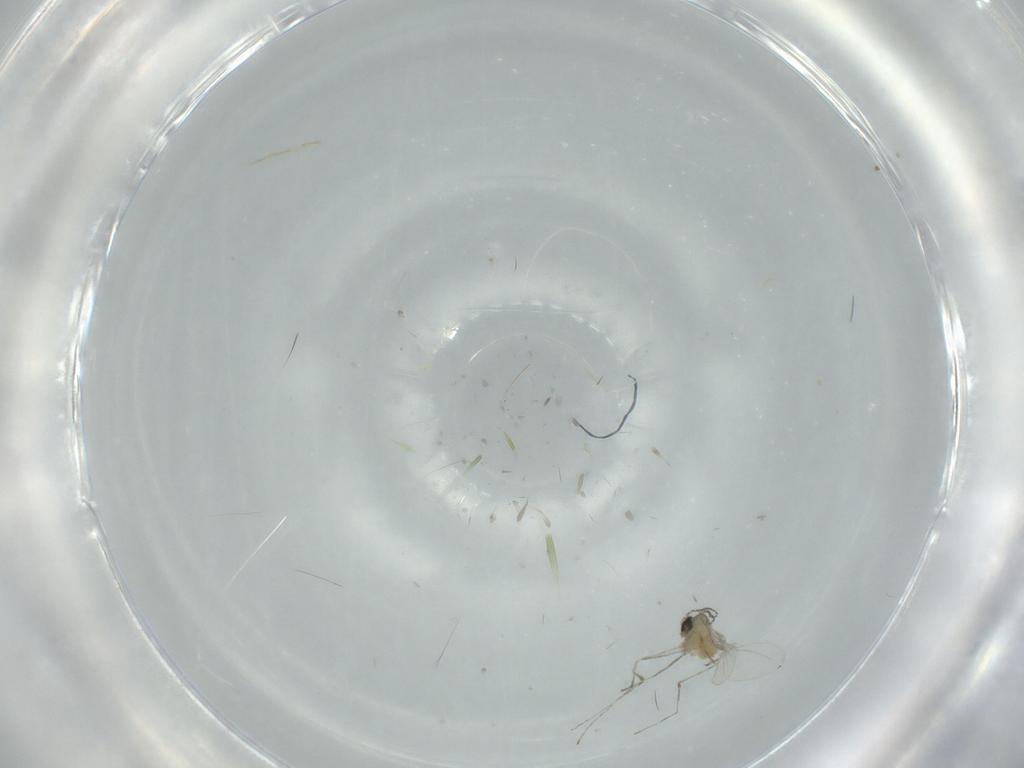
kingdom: Animalia
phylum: Arthropoda
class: Insecta
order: Diptera
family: Cecidomyiidae
